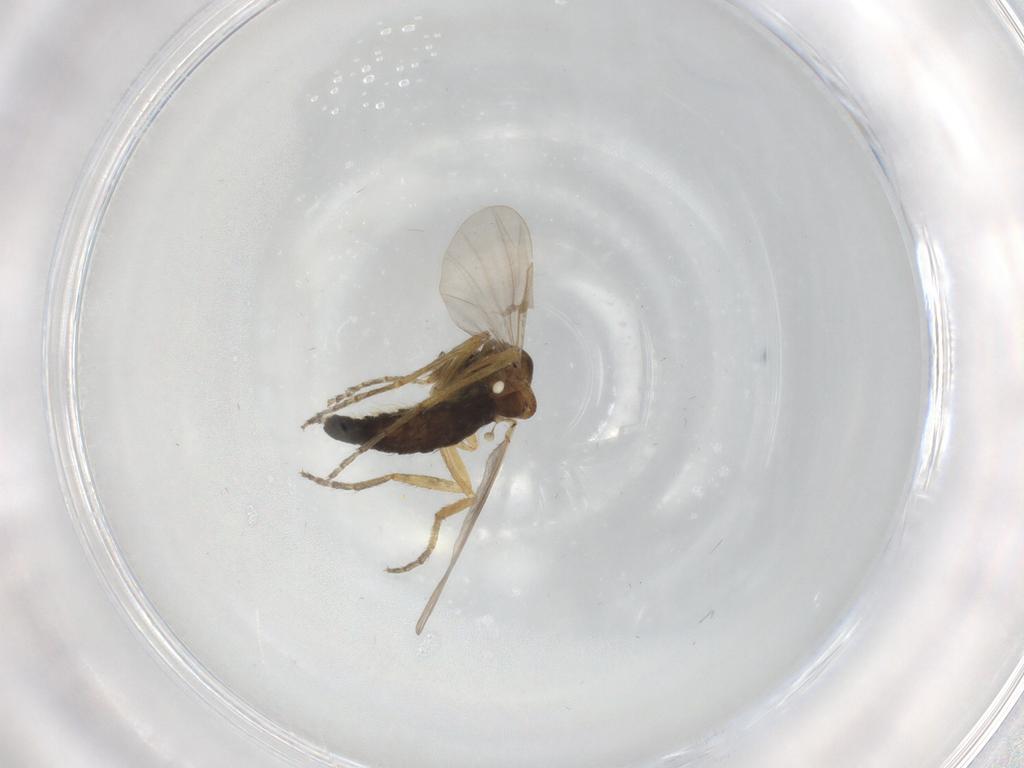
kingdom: Animalia
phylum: Arthropoda
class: Insecta
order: Diptera
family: Ceratopogonidae
